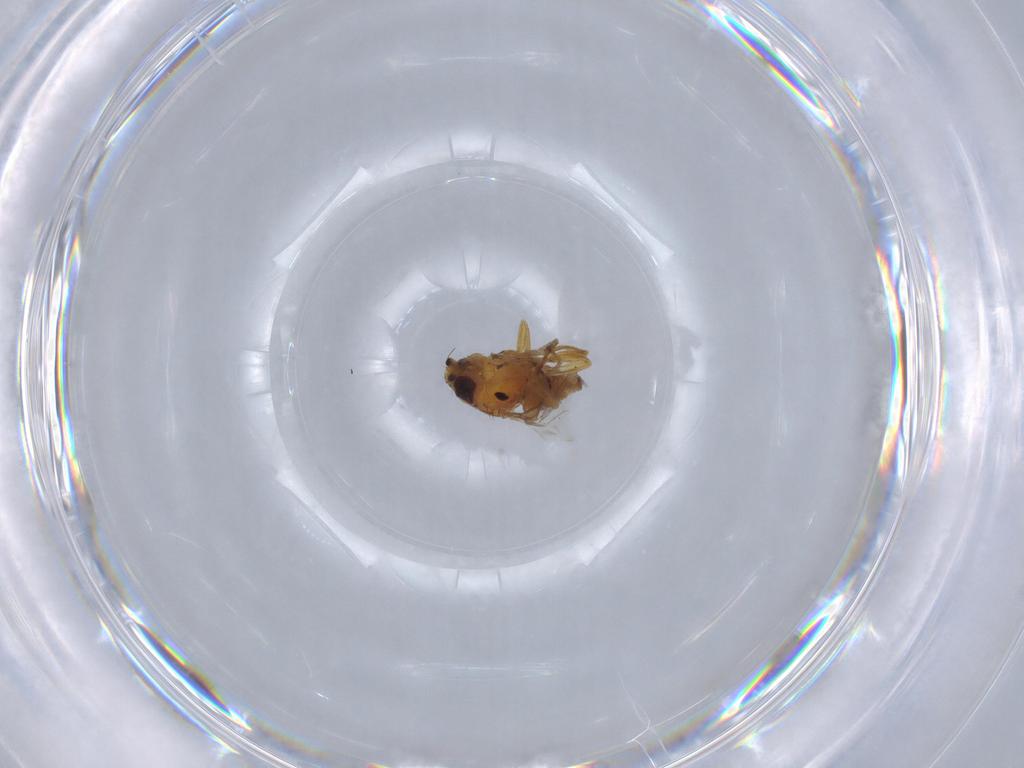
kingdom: Animalia
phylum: Arthropoda
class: Insecta
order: Diptera
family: Chloropidae
